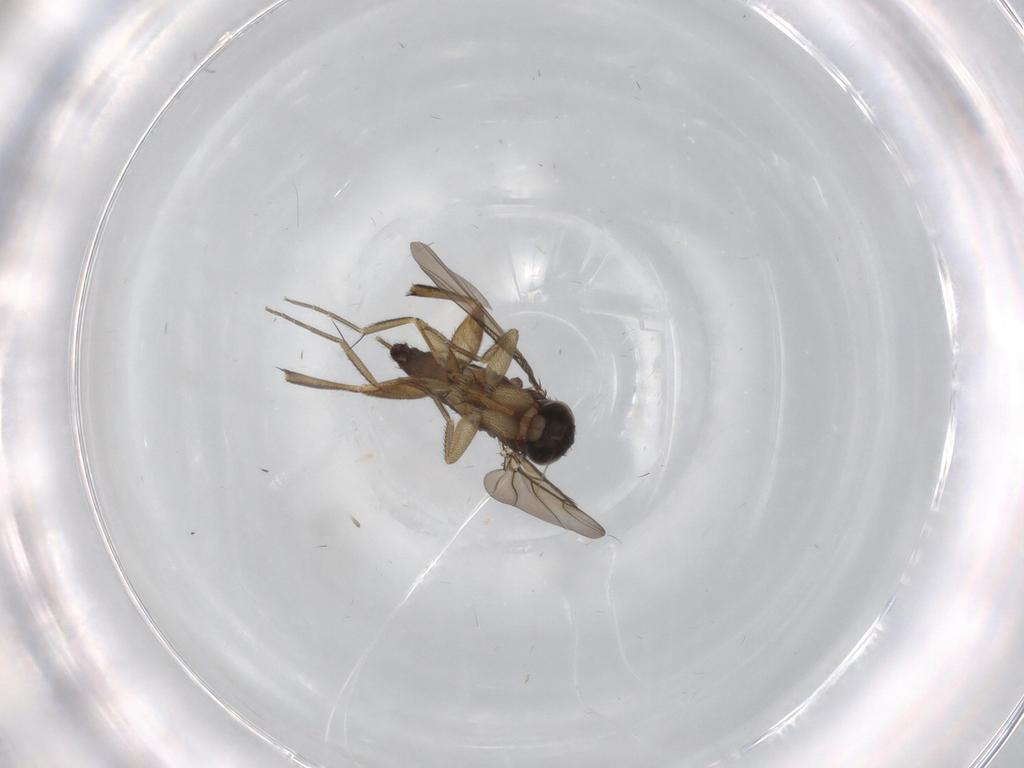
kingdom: Animalia
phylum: Arthropoda
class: Insecta
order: Diptera
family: Phoridae
